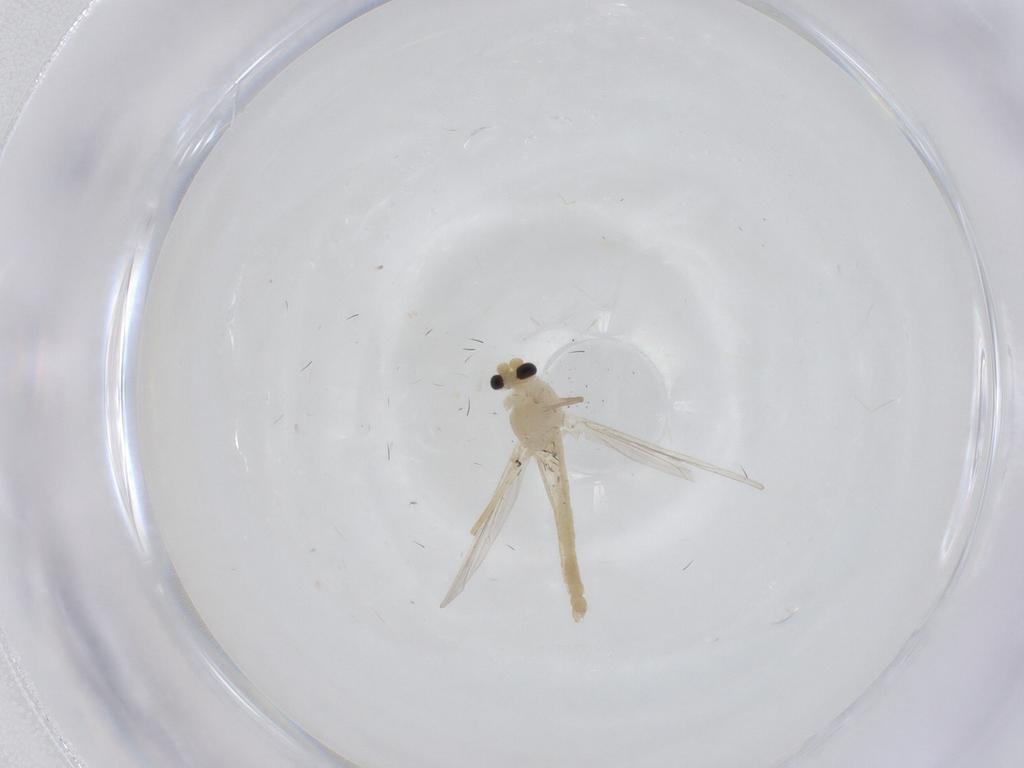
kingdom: Animalia
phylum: Arthropoda
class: Insecta
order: Diptera
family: Chironomidae
